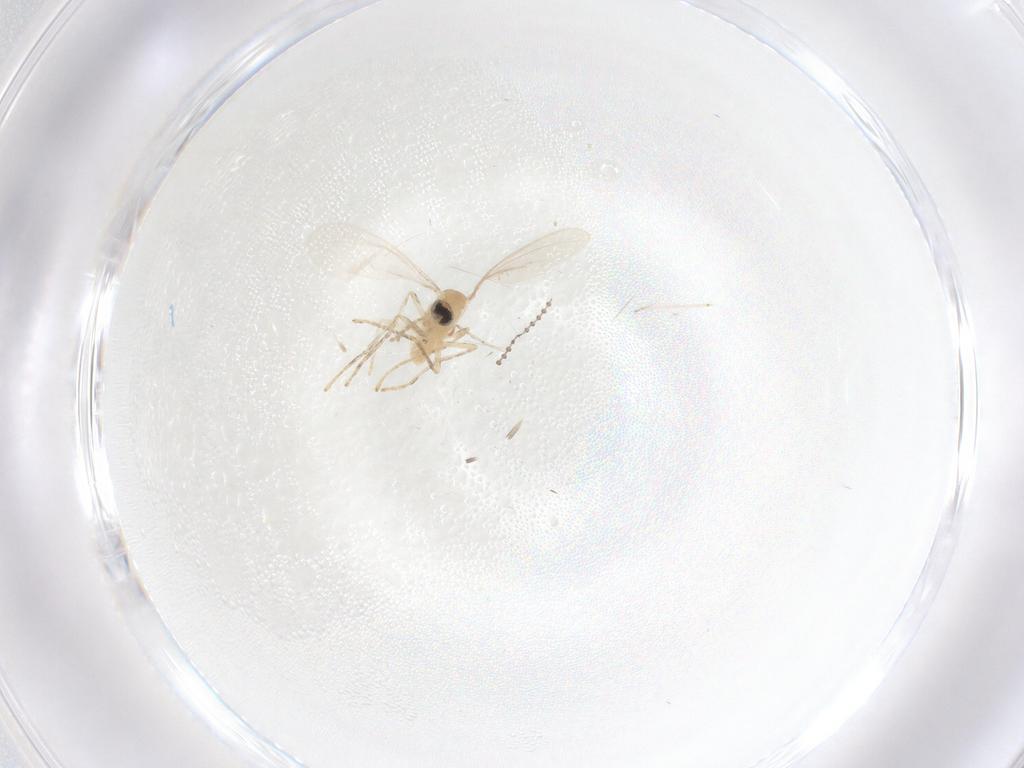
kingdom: Animalia
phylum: Arthropoda
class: Insecta
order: Diptera
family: Cecidomyiidae
